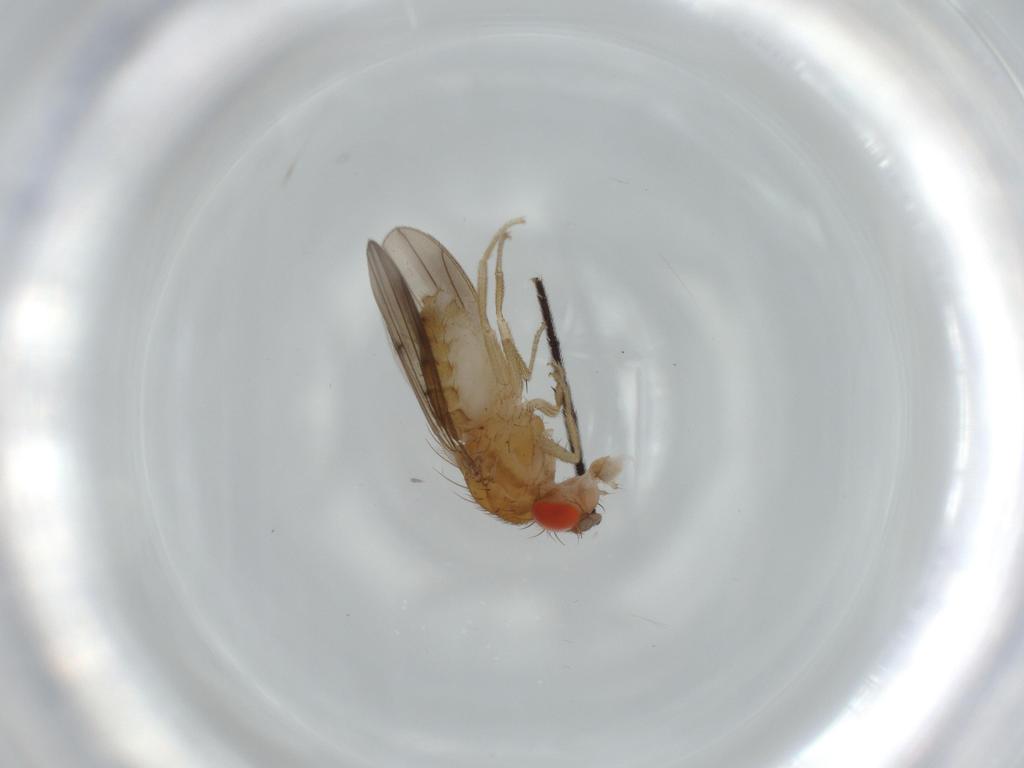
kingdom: Animalia
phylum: Arthropoda
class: Insecta
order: Diptera
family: Drosophilidae
